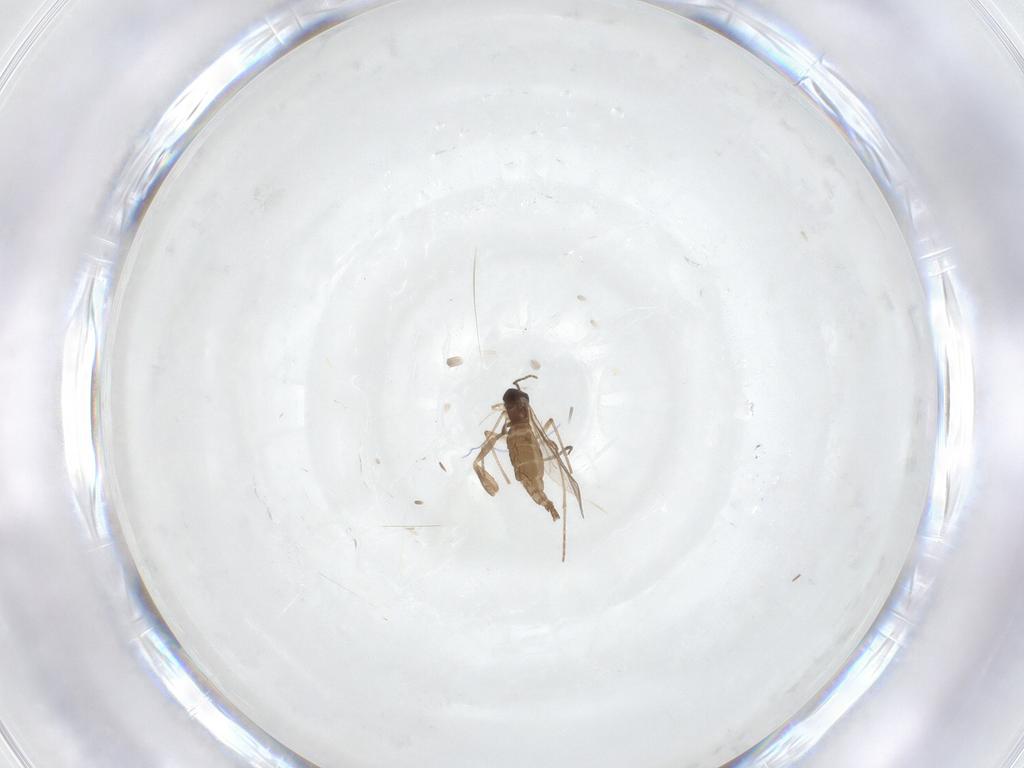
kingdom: Animalia
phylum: Arthropoda
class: Insecta
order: Diptera
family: Sciaridae
